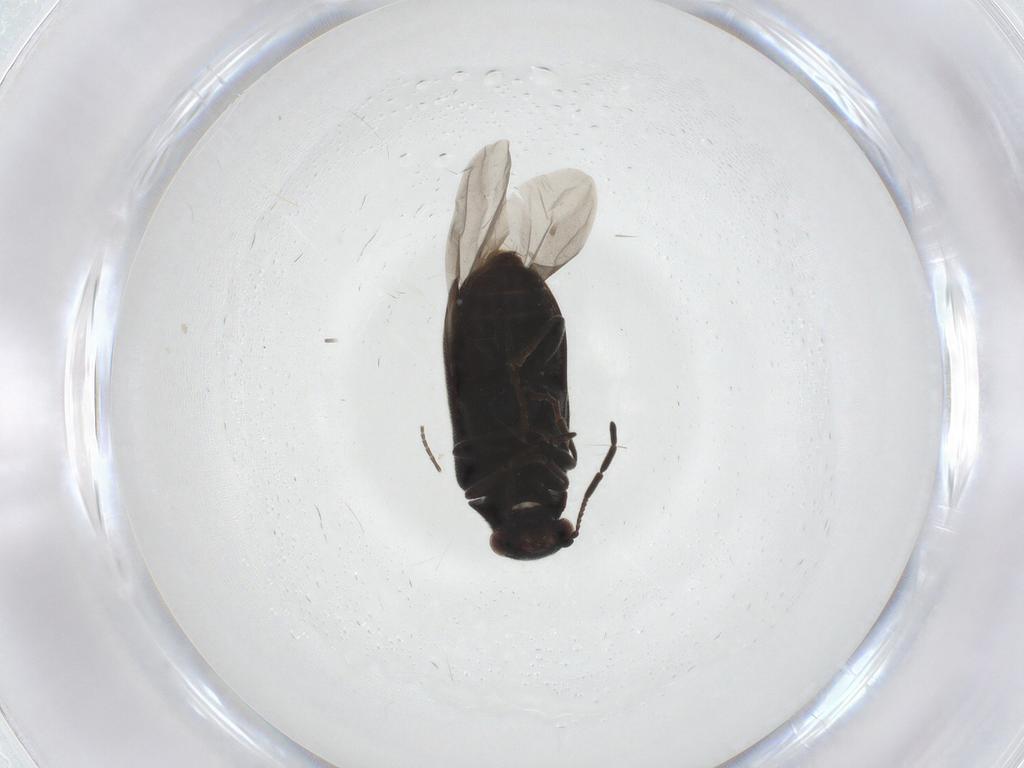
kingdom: Animalia
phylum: Arthropoda
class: Insecta
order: Coleoptera
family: Ptinidae
